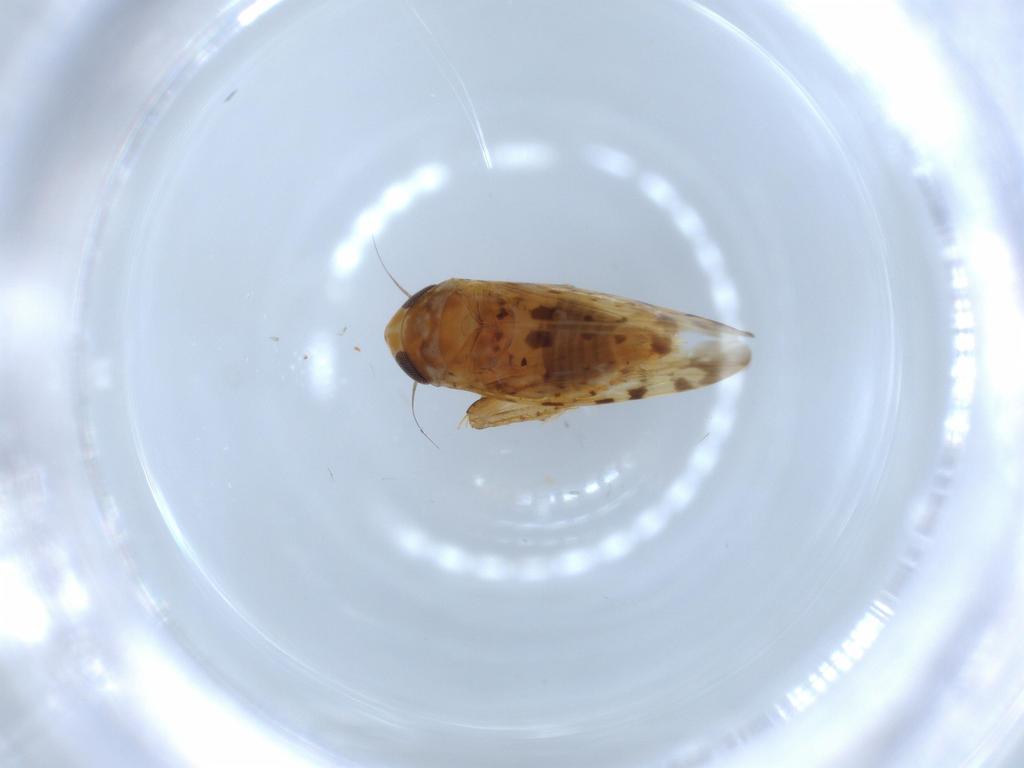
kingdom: Animalia
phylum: Arthropoda
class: Insecta
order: Hemiptera
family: Cicadellidae
